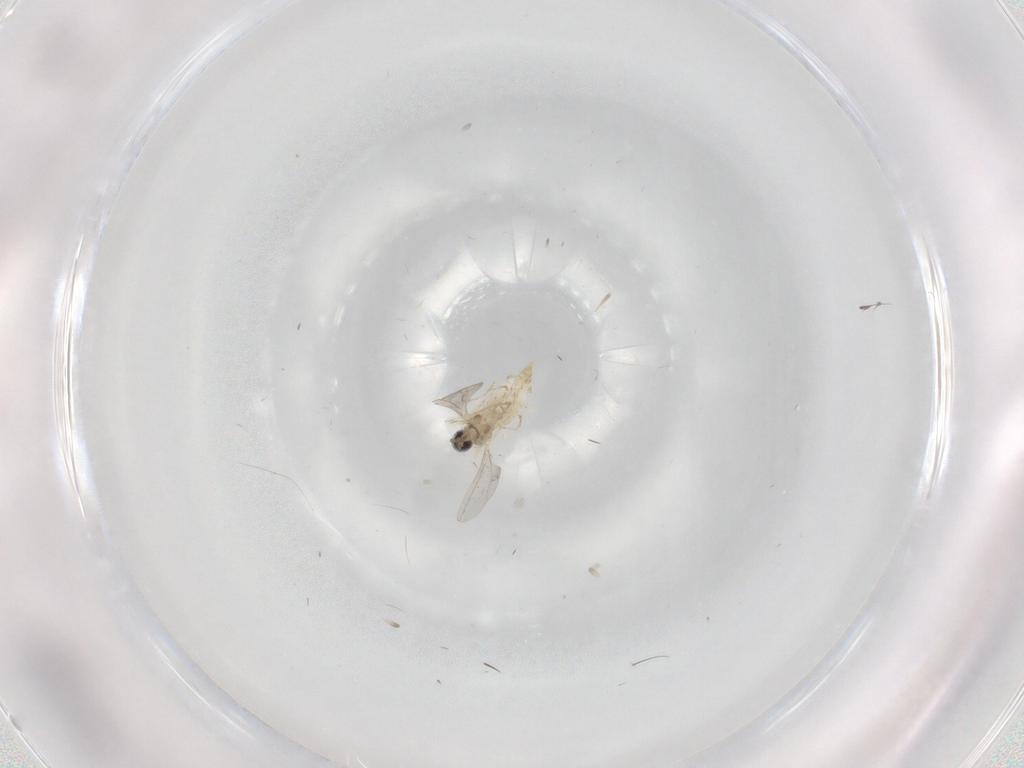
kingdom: Animalia
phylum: Arthropoda
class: Insecta
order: Diptera
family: Cecidomyiidae
